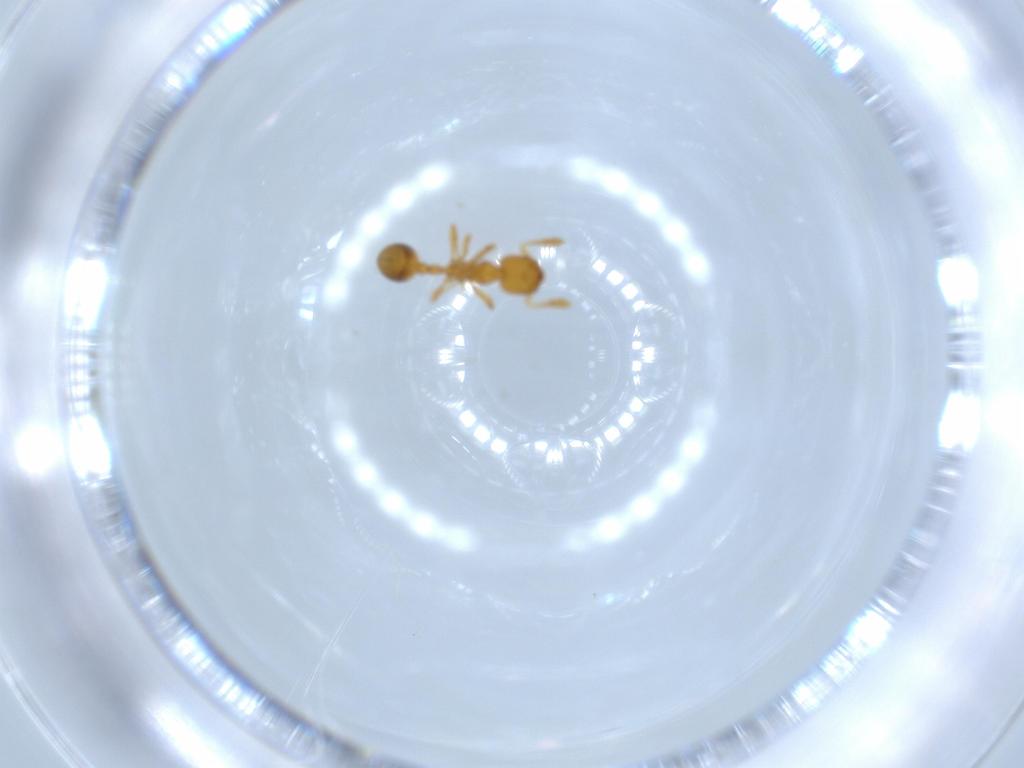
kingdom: Animalia
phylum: Arthropoda
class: Insecta
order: Hymenoptera
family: Formicidae
